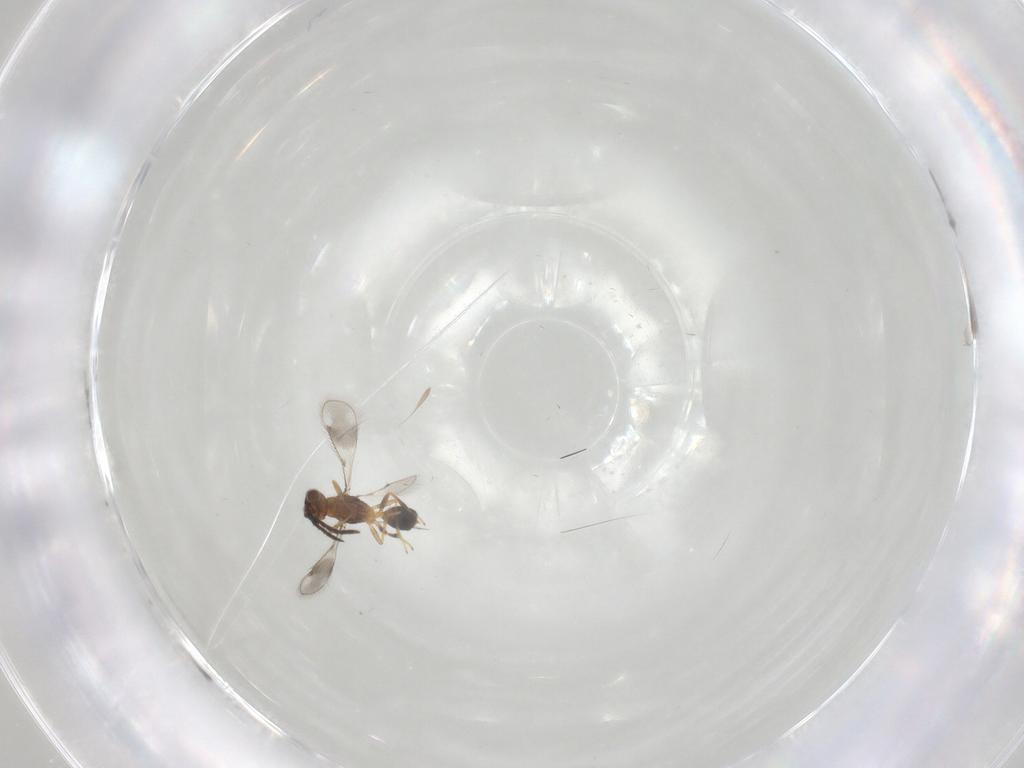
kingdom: Animalia
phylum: Arthropoda
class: Insecta
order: Hymenoptera
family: Pteromalidae
